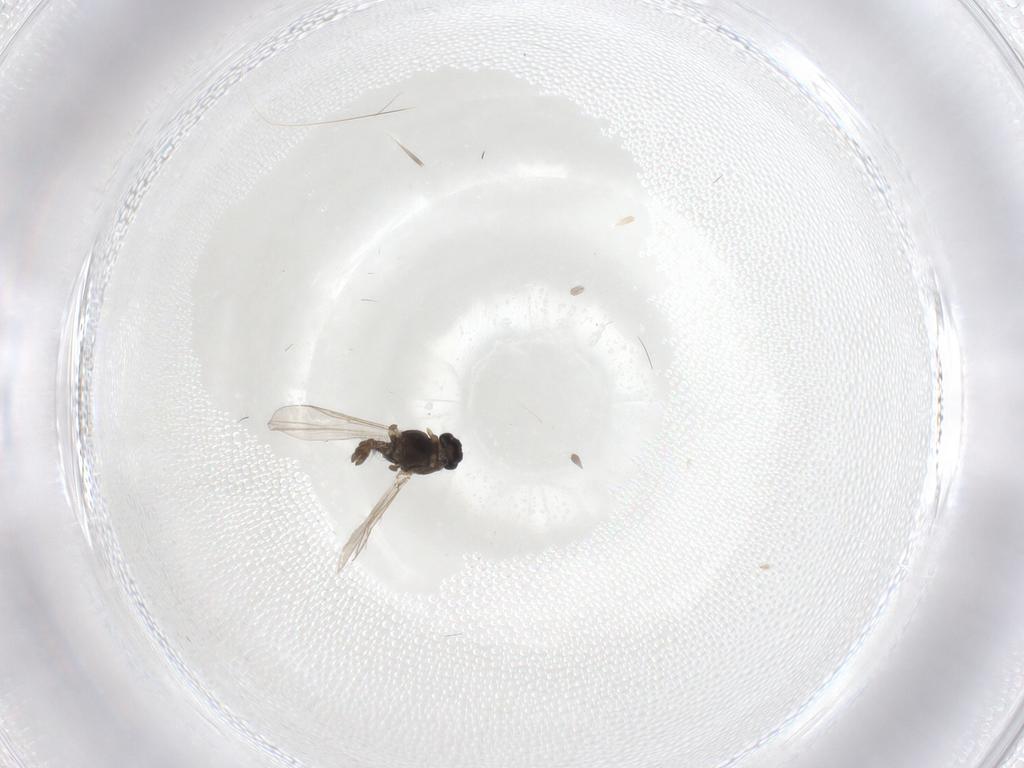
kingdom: Animalia
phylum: Arthropoda
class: Insecta
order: Diptera
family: Chironomidae
